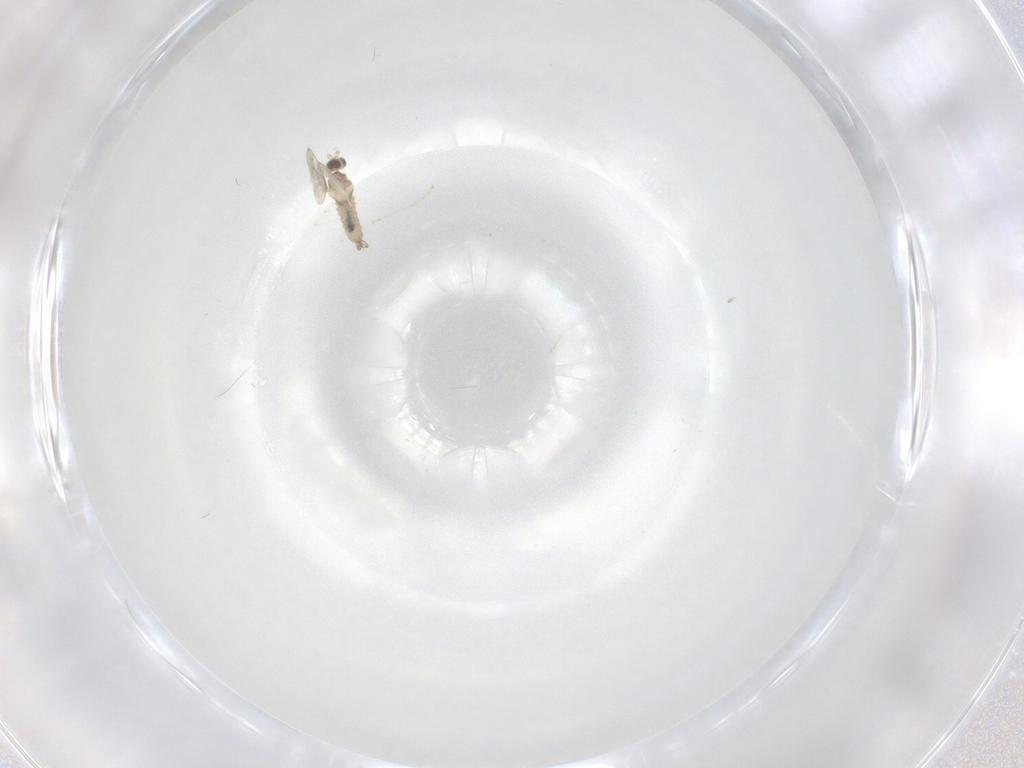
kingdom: Animalia
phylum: Arthropoda
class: Insecta
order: Diptera
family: Cecidomyiidae
